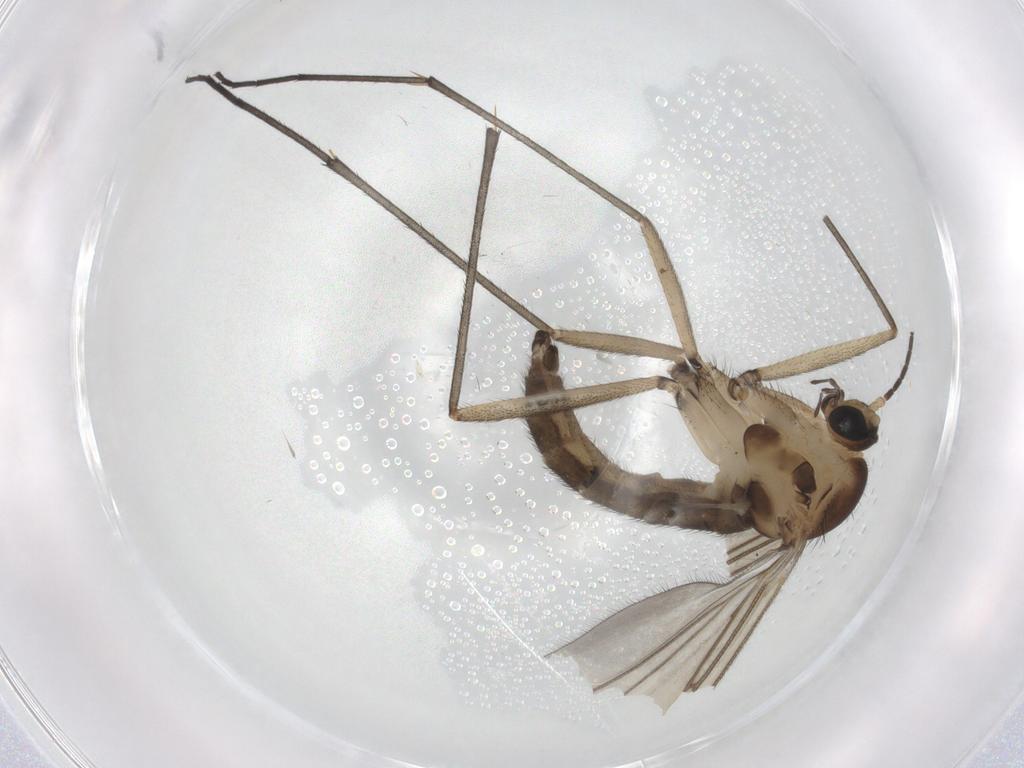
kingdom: Animalia
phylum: Arthropoda
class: Insecta
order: Diptera
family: Sciaridae
